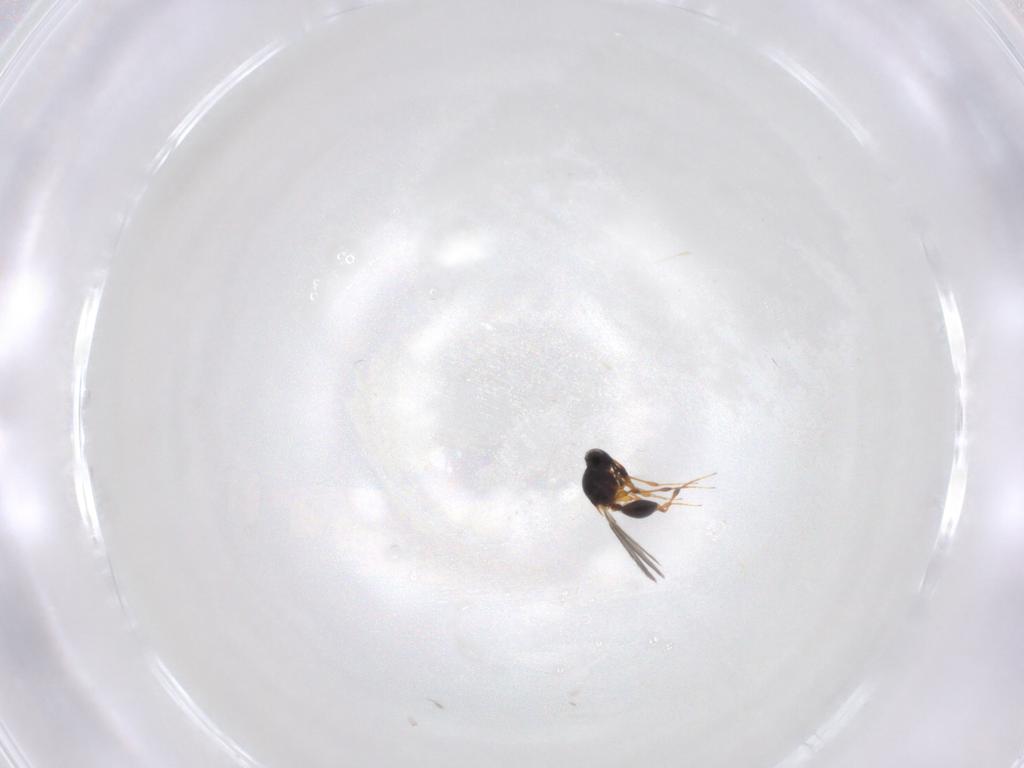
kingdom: Animalia
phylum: Arthropoda
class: Insecta
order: Hymenoptera
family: Platygastridae
